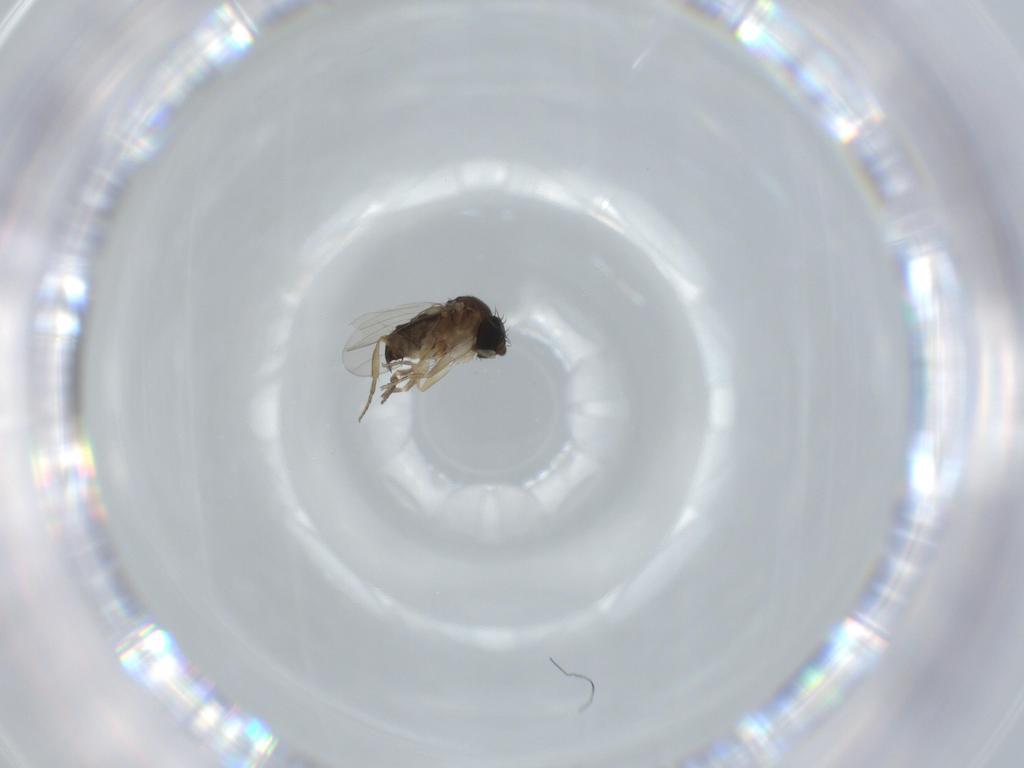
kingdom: Animalia
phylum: Arthropoda
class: Insecta
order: Diptera
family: Phoridae
